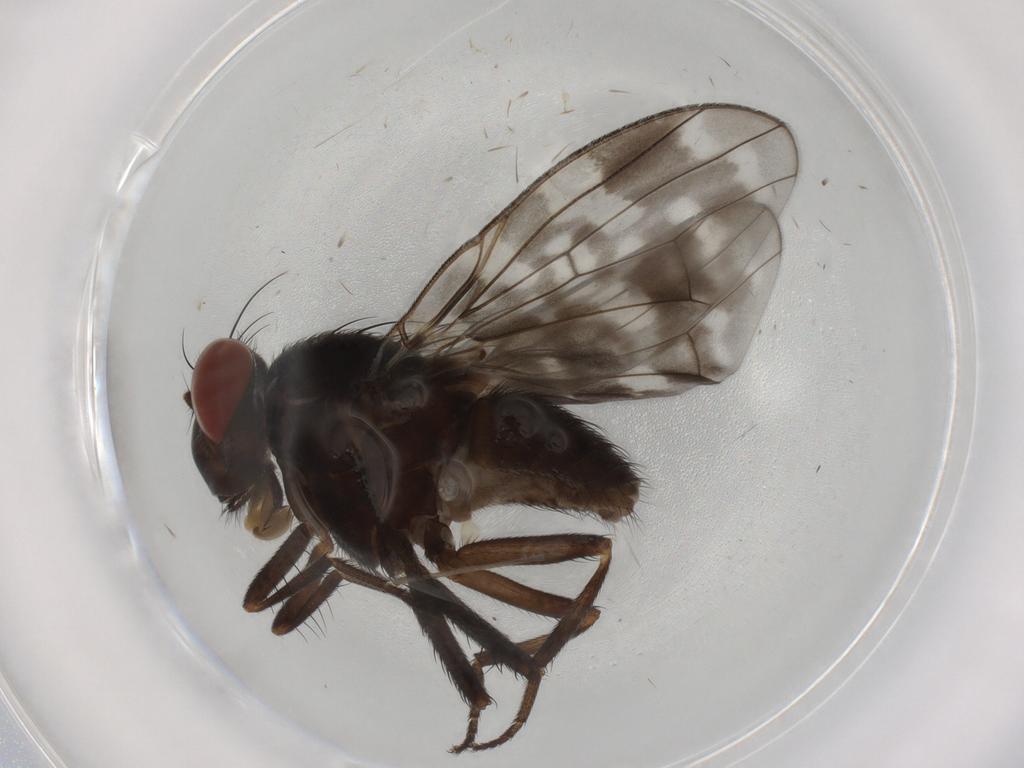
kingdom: Animalia
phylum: Arthropoda
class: Insecta
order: Diptera
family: Cecidomyiidae
